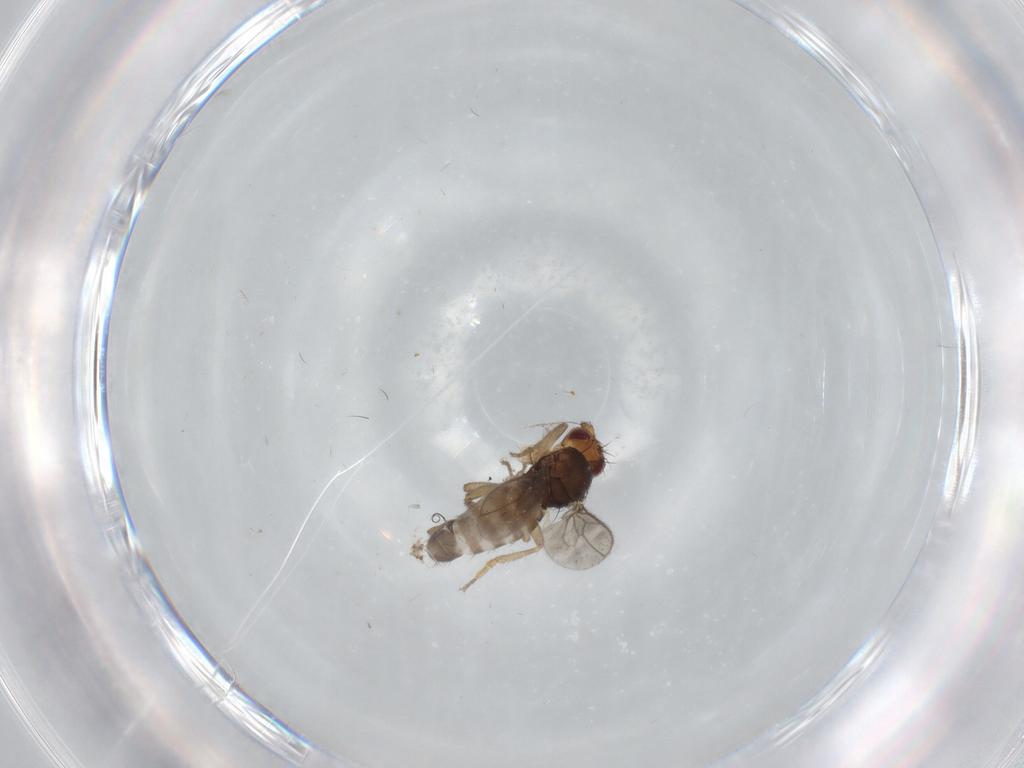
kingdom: Animalia
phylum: Arthropoda
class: Insecta
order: Diptera
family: Sphaeroceridae
